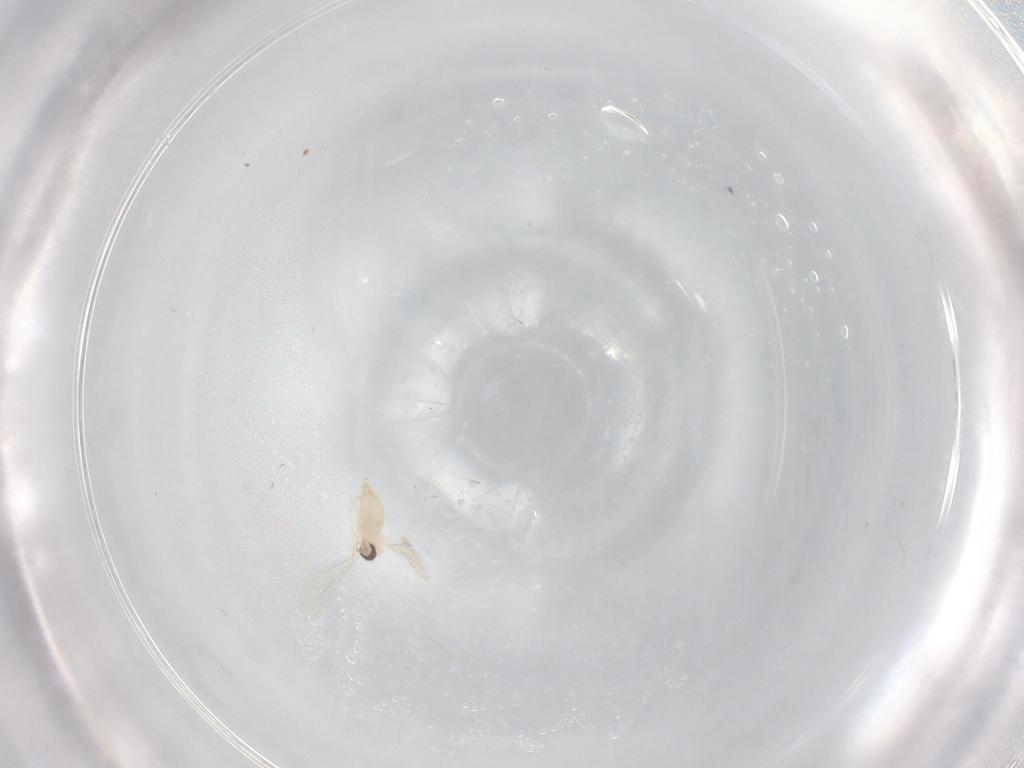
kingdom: Animalia
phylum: Arthropoda
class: Insecta
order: Diptera
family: Cecidomyiidae
